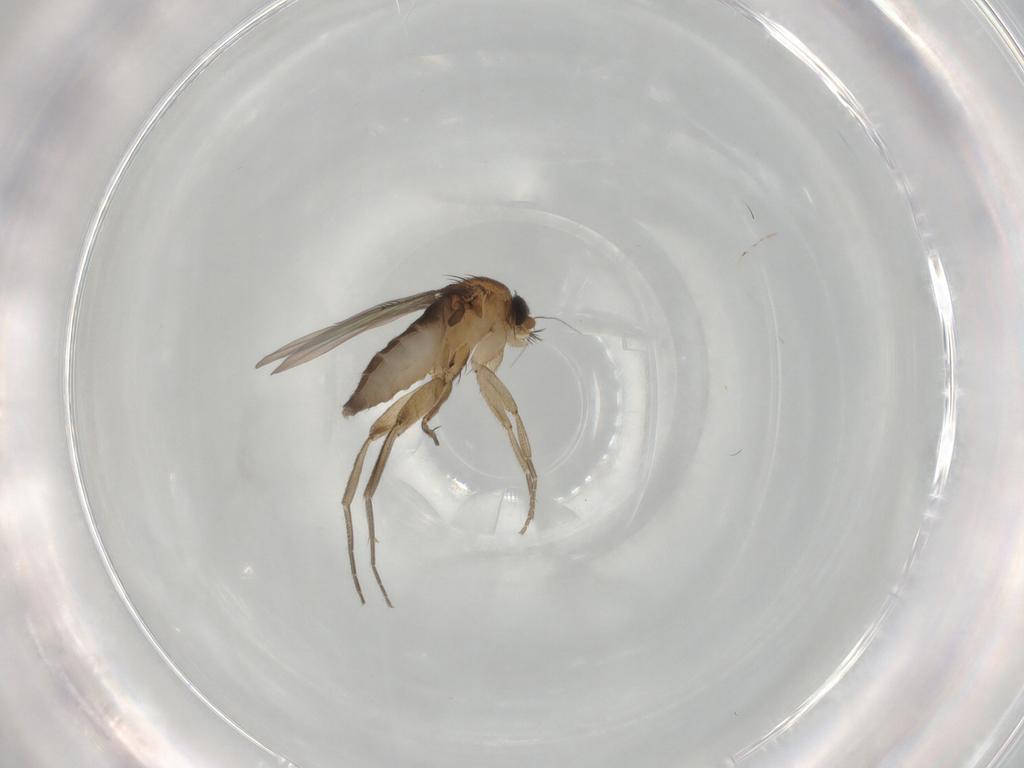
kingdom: Animalia
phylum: Arthropoda
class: Insecta
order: Diptera
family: Phoridae
